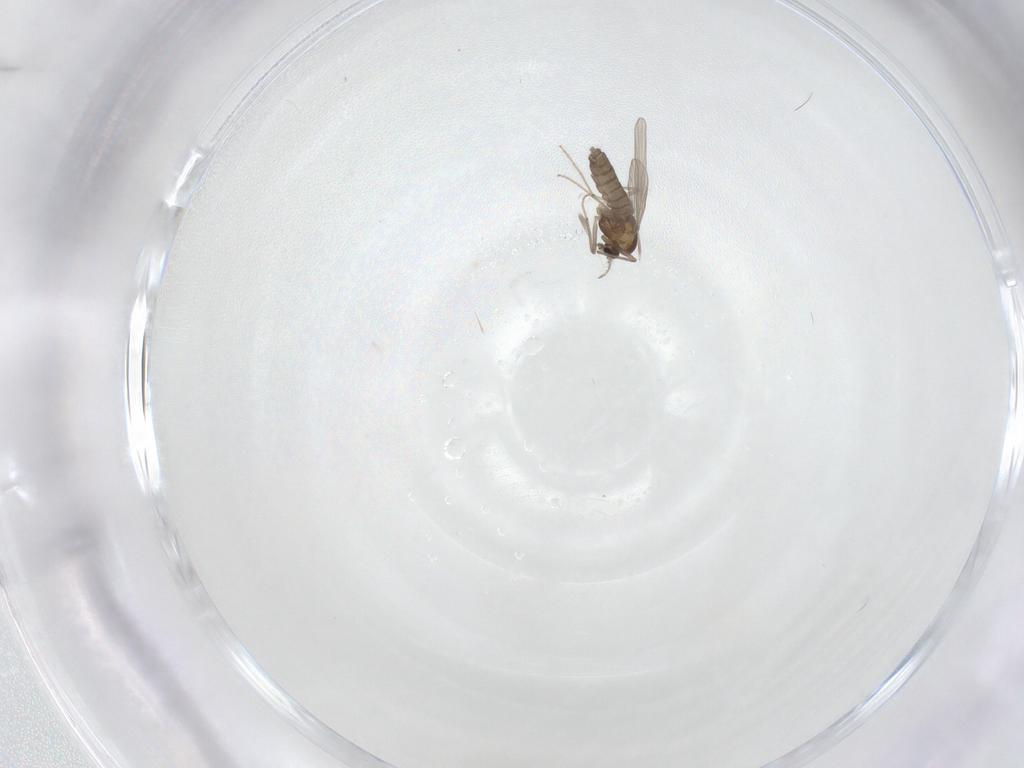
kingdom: Animalia
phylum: Arthropoda
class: Insecta
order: Diptera
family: Chironomidae
